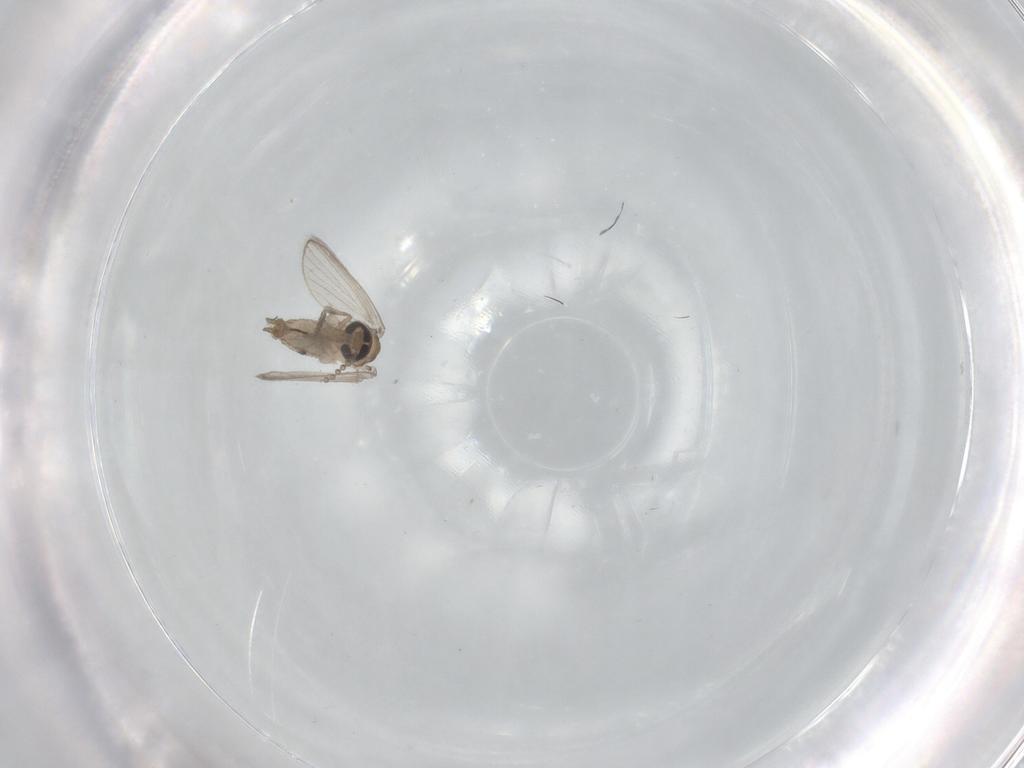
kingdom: Animalia
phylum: Arthropoda
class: Insecta
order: Diptera
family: Psychodidae
